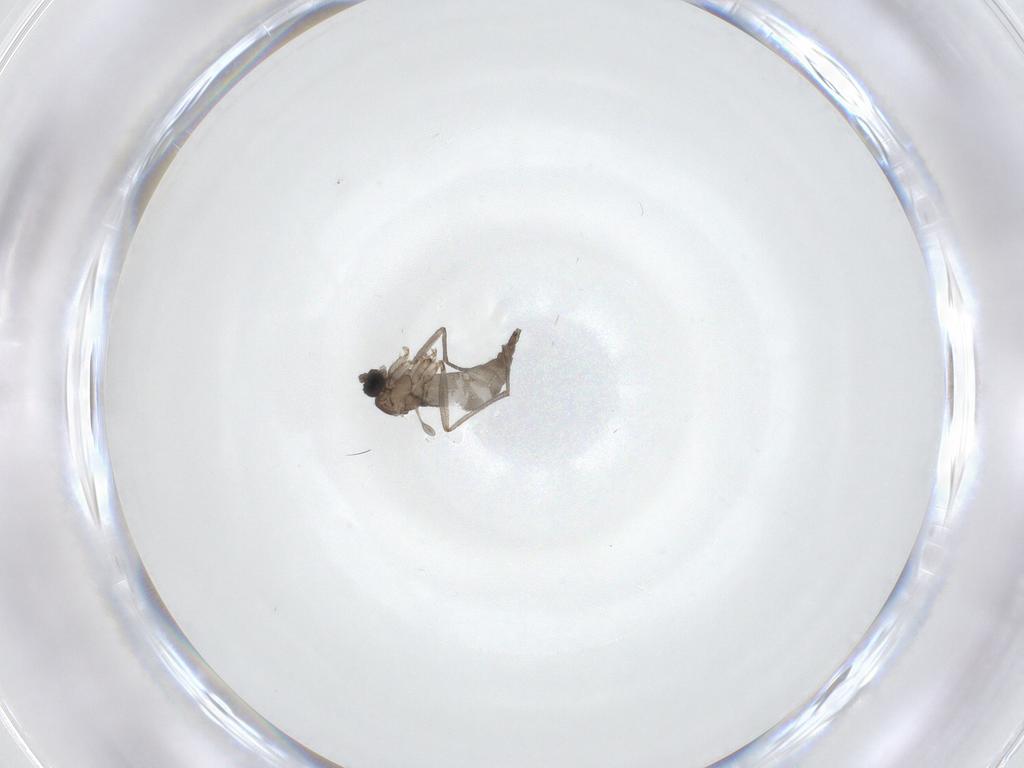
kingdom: Animalia
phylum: Arthropoda
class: Insecta
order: Diptera
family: Sciaridae
